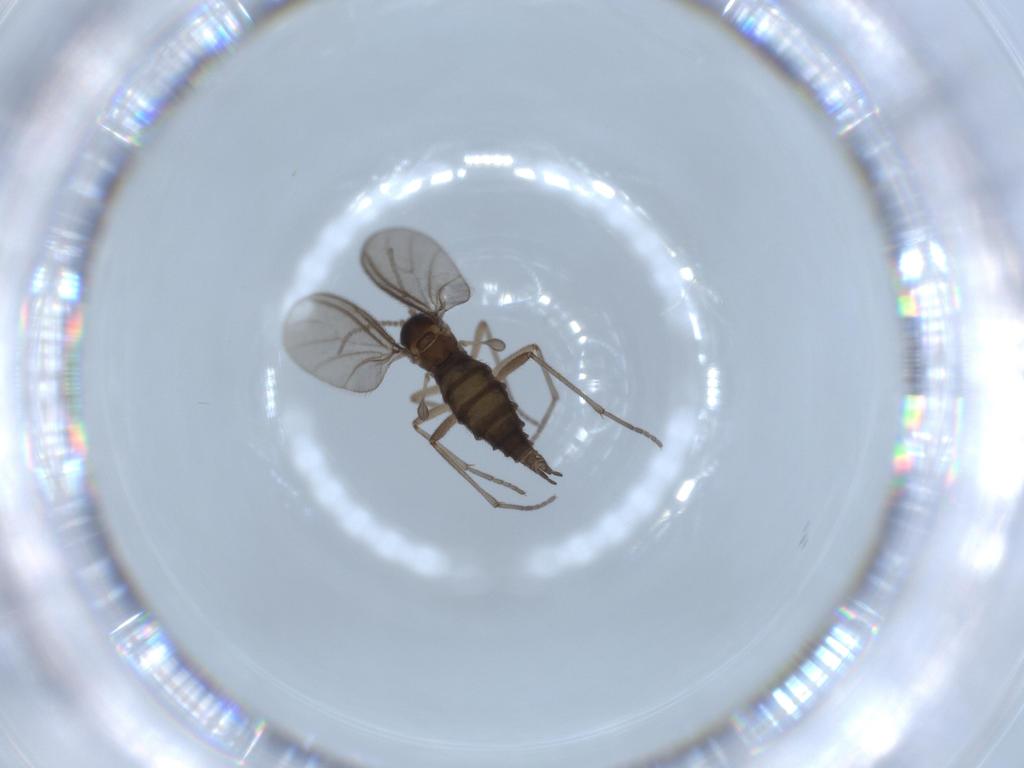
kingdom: Animalia
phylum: Arthropoda
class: Insecta
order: Diptera
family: Sciaridae
